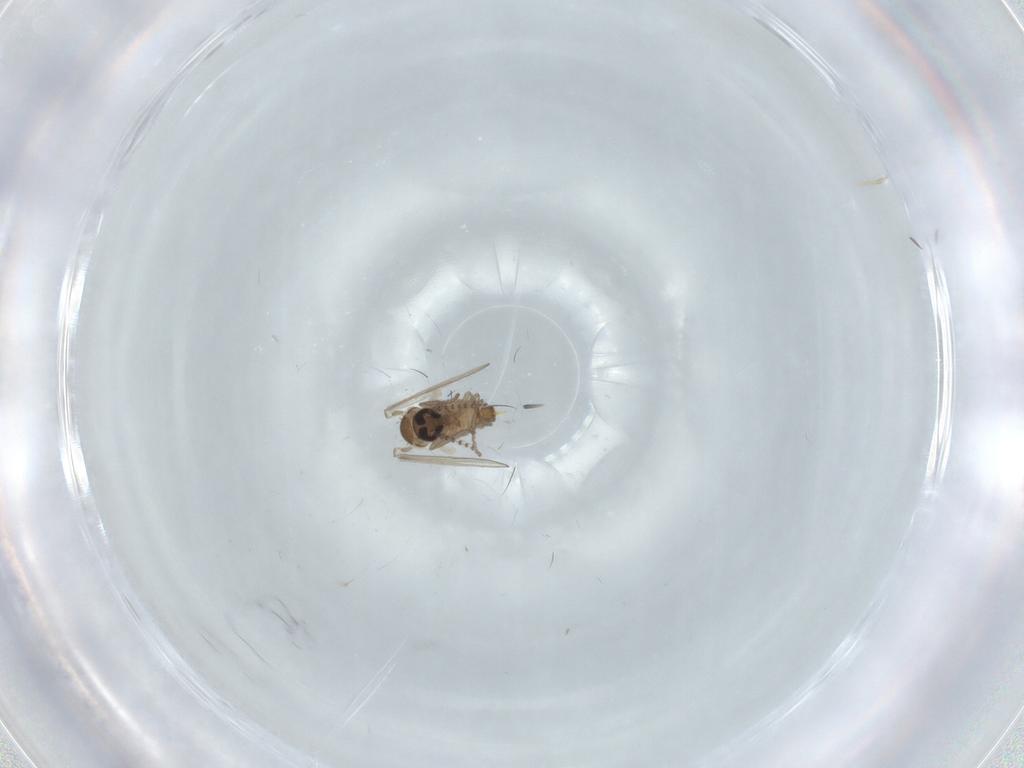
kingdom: Animalia
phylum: Arthropoda
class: Insecta
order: Diptera
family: Psychodidae
